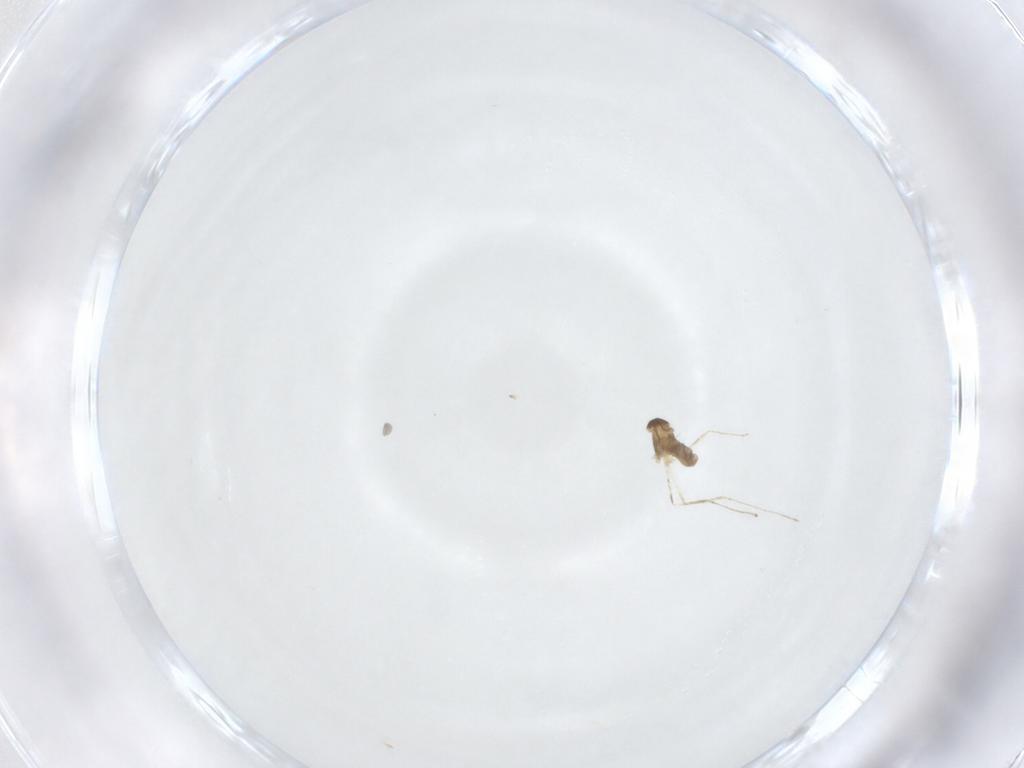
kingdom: Animalia
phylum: Arthropoda
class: Insecta
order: Diptera
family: Cecidomyiidae
